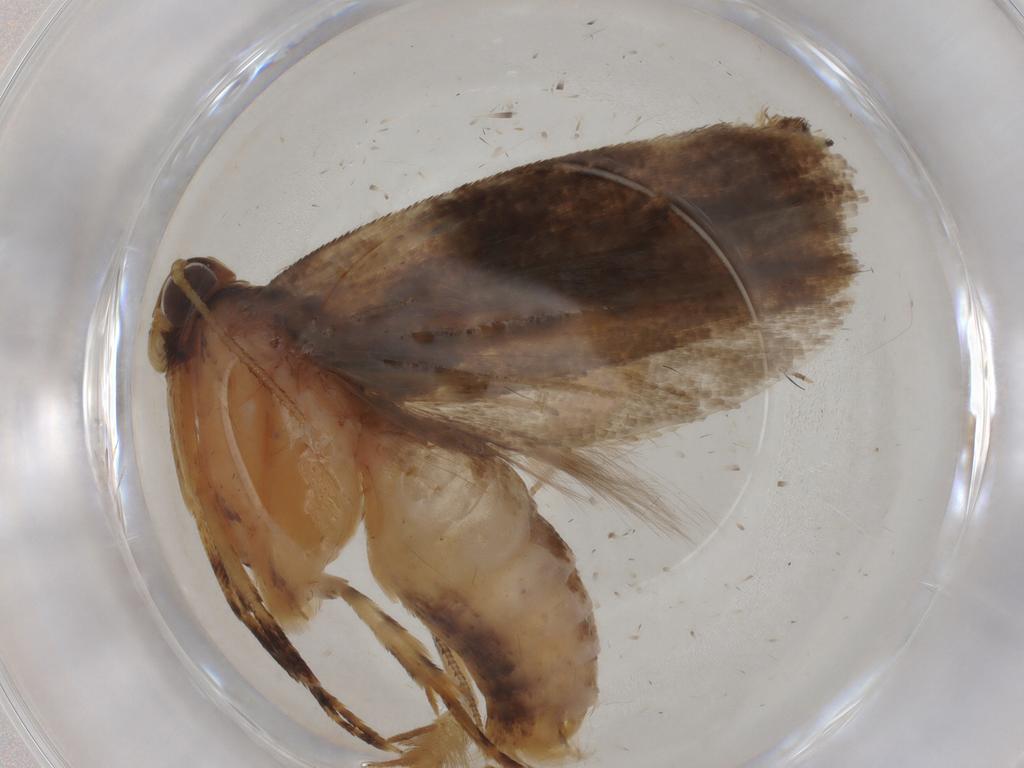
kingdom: Animalia
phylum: Arthropoda
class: Insecta
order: Lepidoptera
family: Gelechiidae
